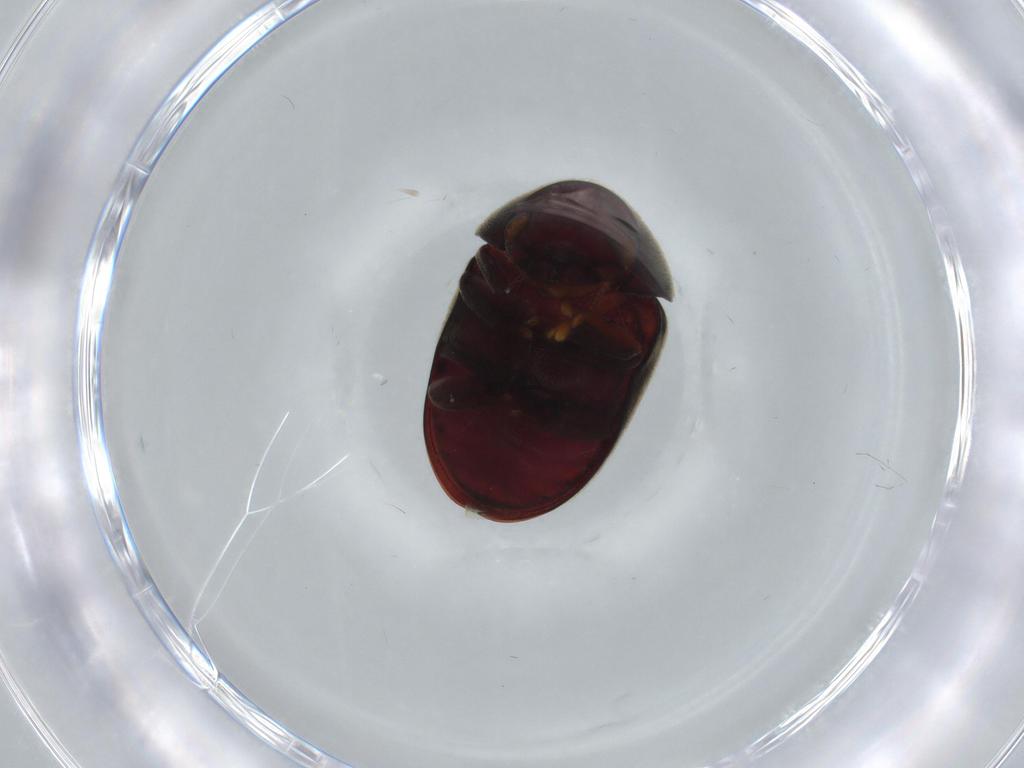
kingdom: Animalia
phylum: Arthropoda
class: Insecta
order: Coleoptera
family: Ptinidae
